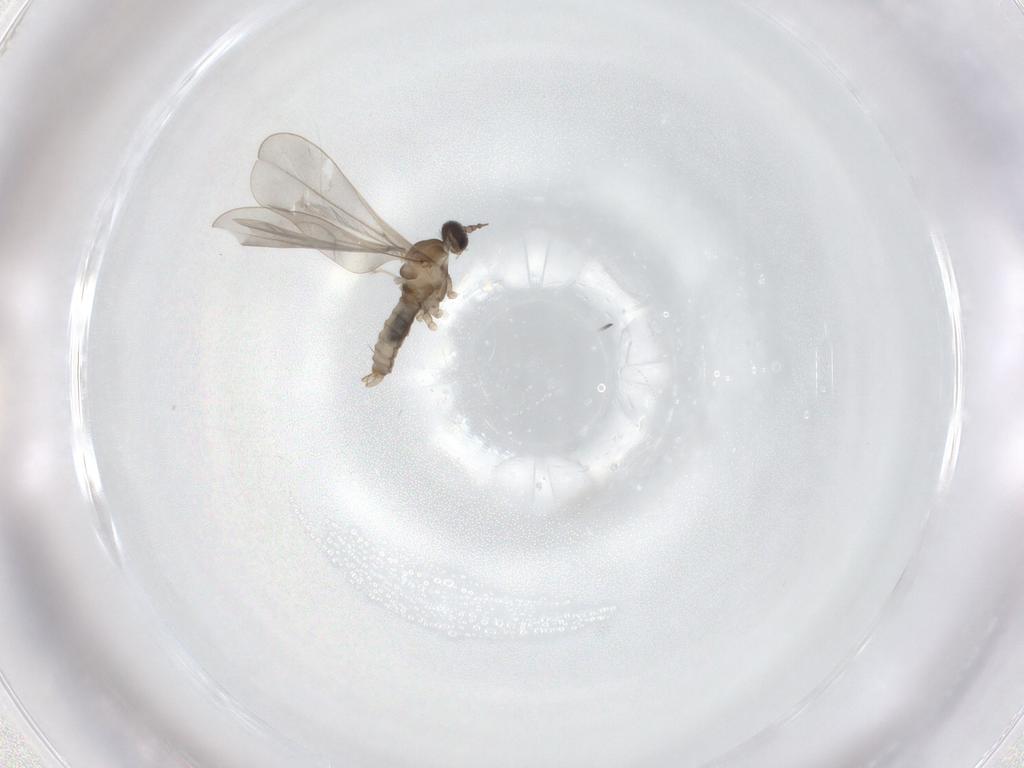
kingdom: Animalia
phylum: Arthropoda
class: Insecta
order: Diptera
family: Cecidomyiidae
